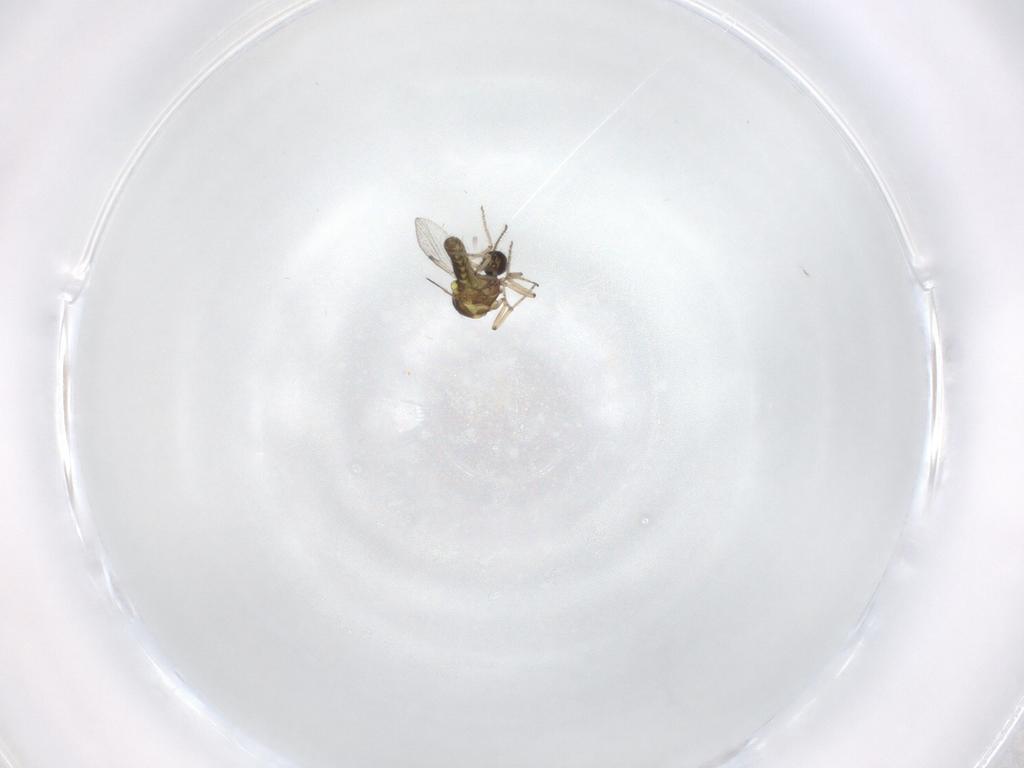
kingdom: Animalia
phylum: Arthropoda
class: Insecta
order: Diptera
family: Ceratopogonidae
